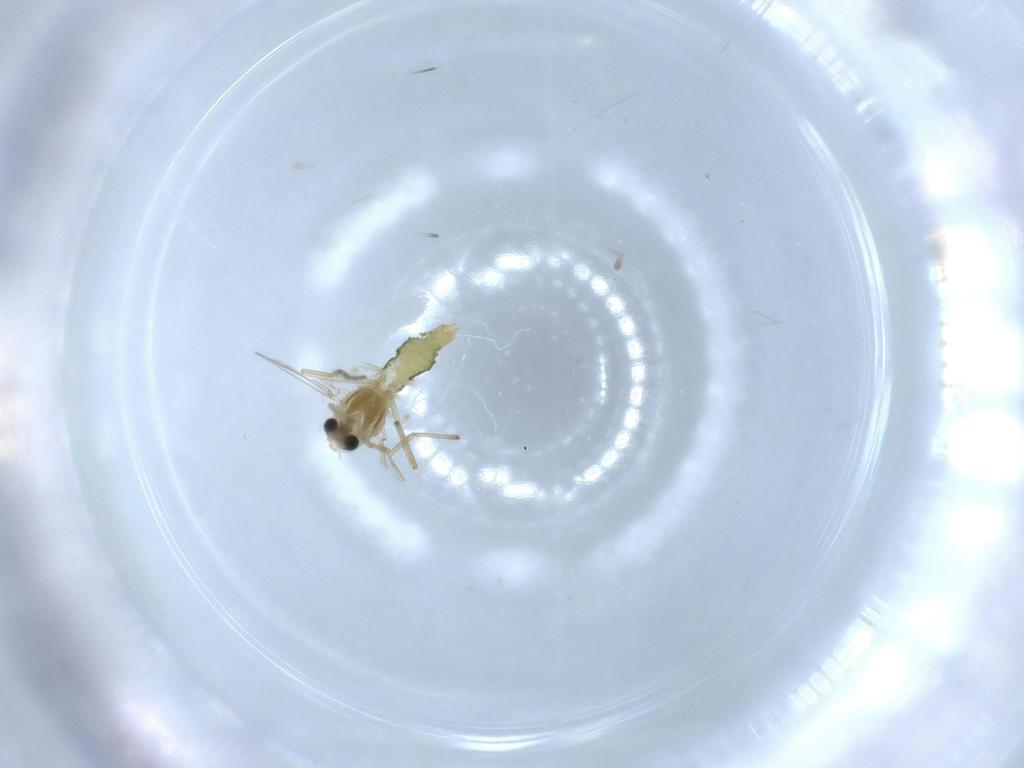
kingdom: Animalia
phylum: Arthropoda
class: Insecta
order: Diptera
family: Chironomidae
